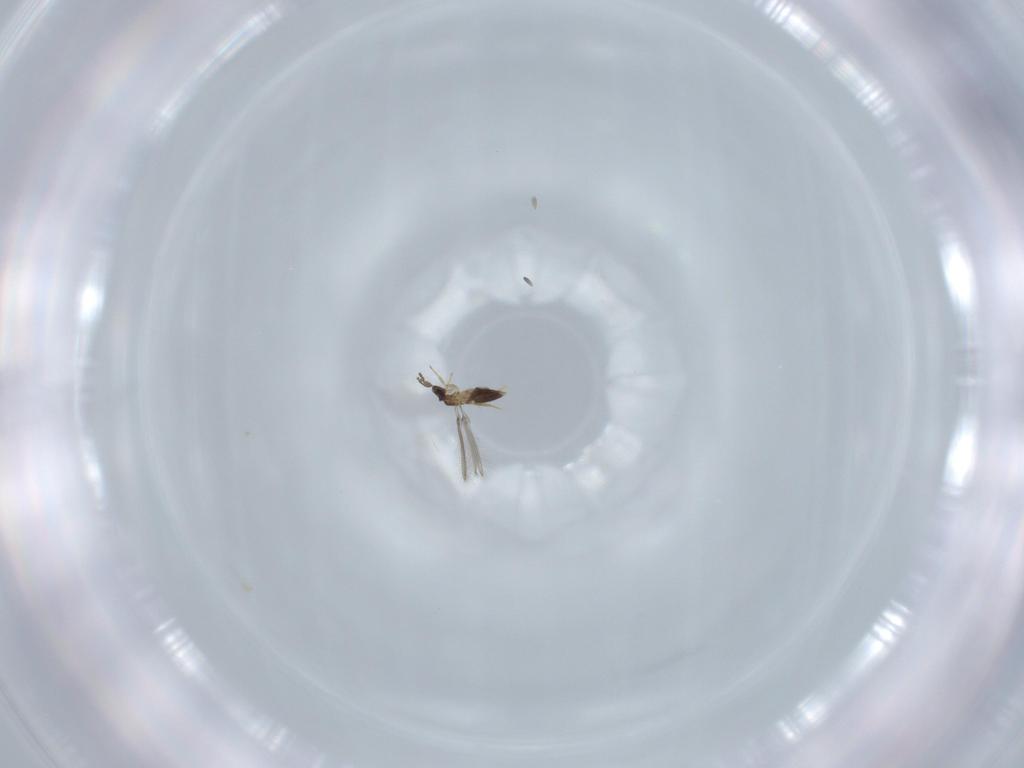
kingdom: Animalia
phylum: Arthropoda
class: Insecta
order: Hymenoptera
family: Mymaridae
